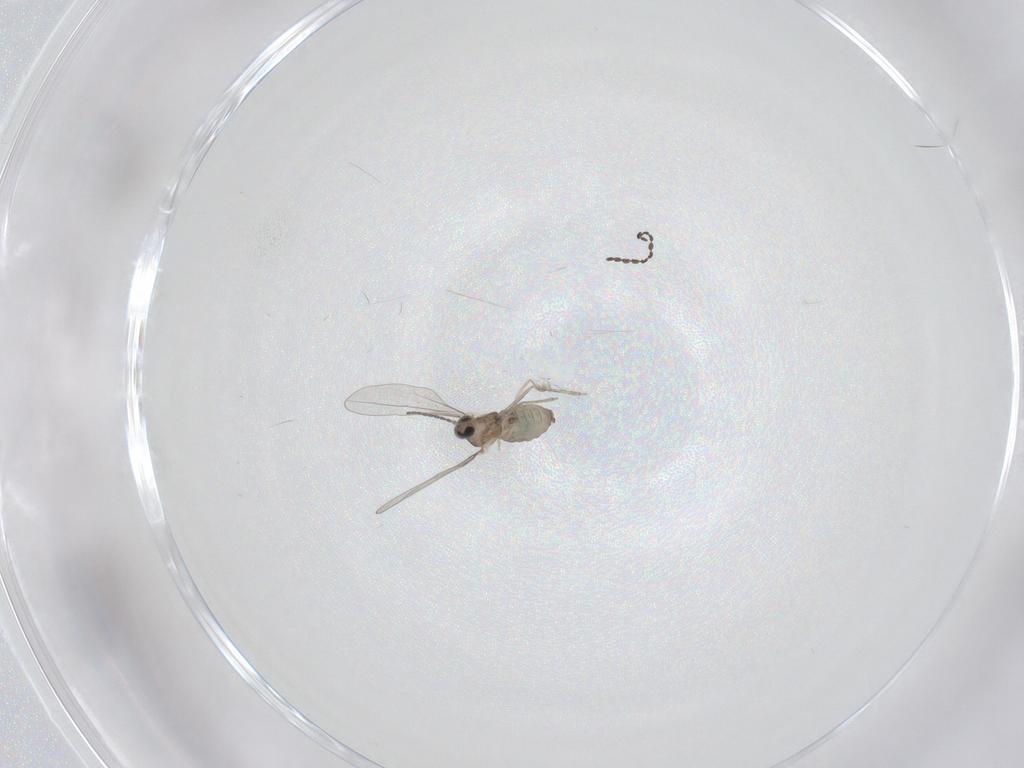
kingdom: Animalia
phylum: Arthropoda
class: Insecta
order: Diptera
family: Cecidomyiidae
